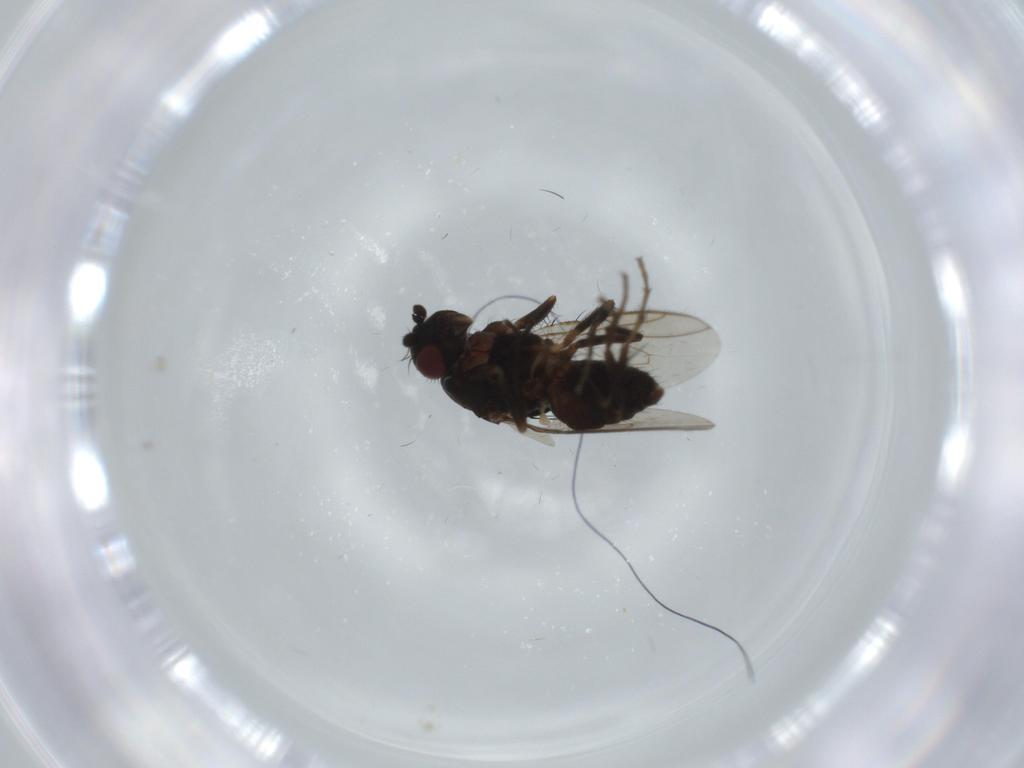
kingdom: Animalia
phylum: Arthropoda
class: Insecta
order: Diptera
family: Sphaeroceridae
